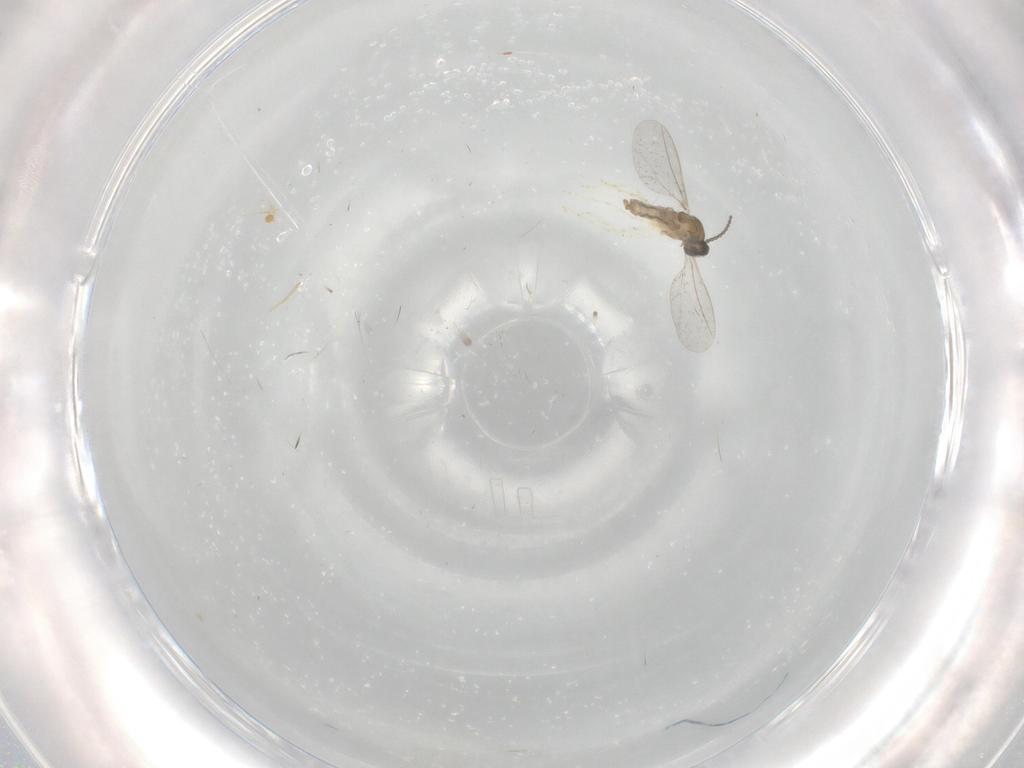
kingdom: Animalia
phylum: Arthropoda
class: Insecta
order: Diptera
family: Cecidomyiidae
